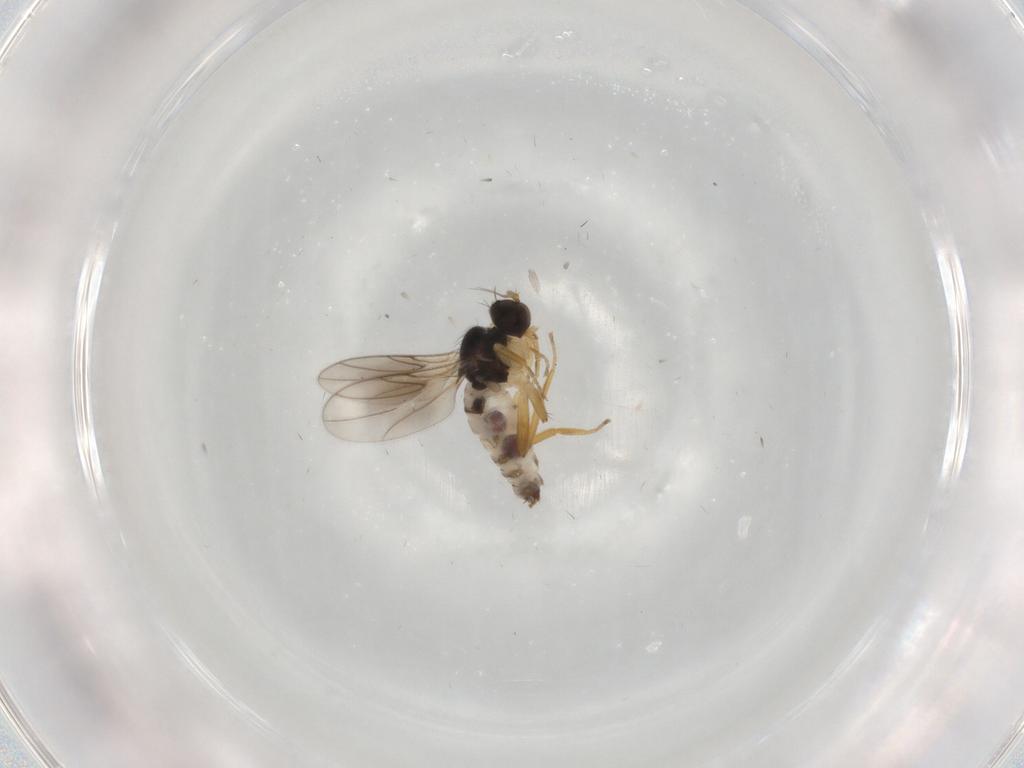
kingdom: Animalia
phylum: Arthropoda
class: Insecta
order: Diptera
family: Hybotidae
